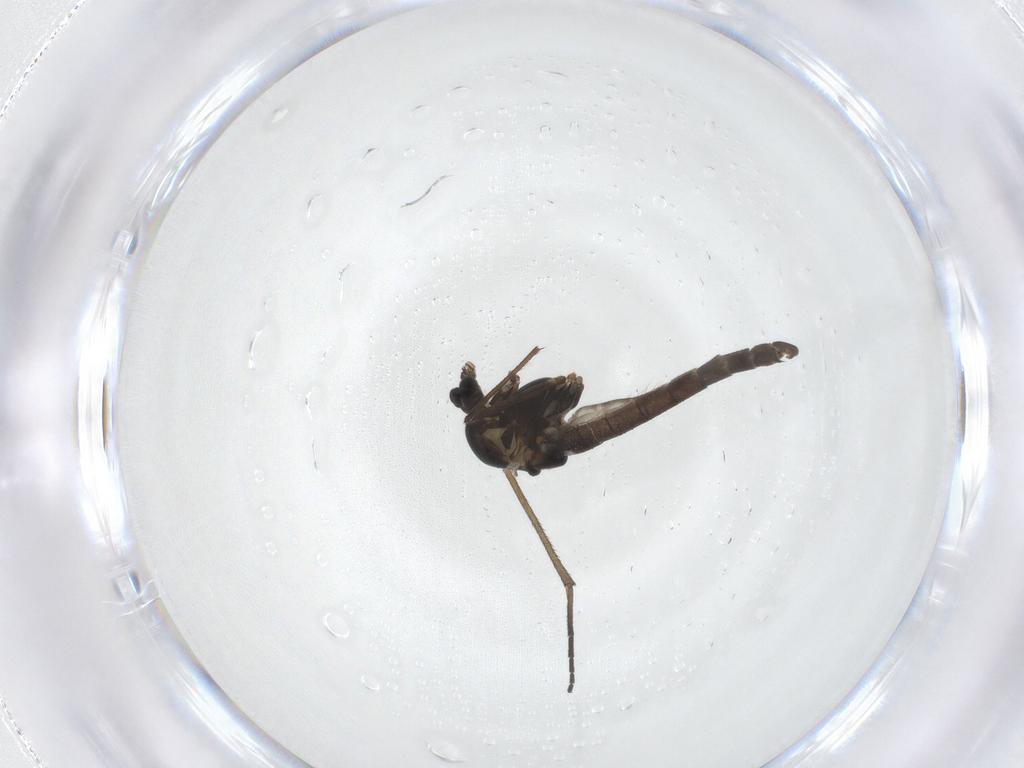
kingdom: Animalia
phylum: Arthropoda
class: Insecta
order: Diptera
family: Chironomidae
